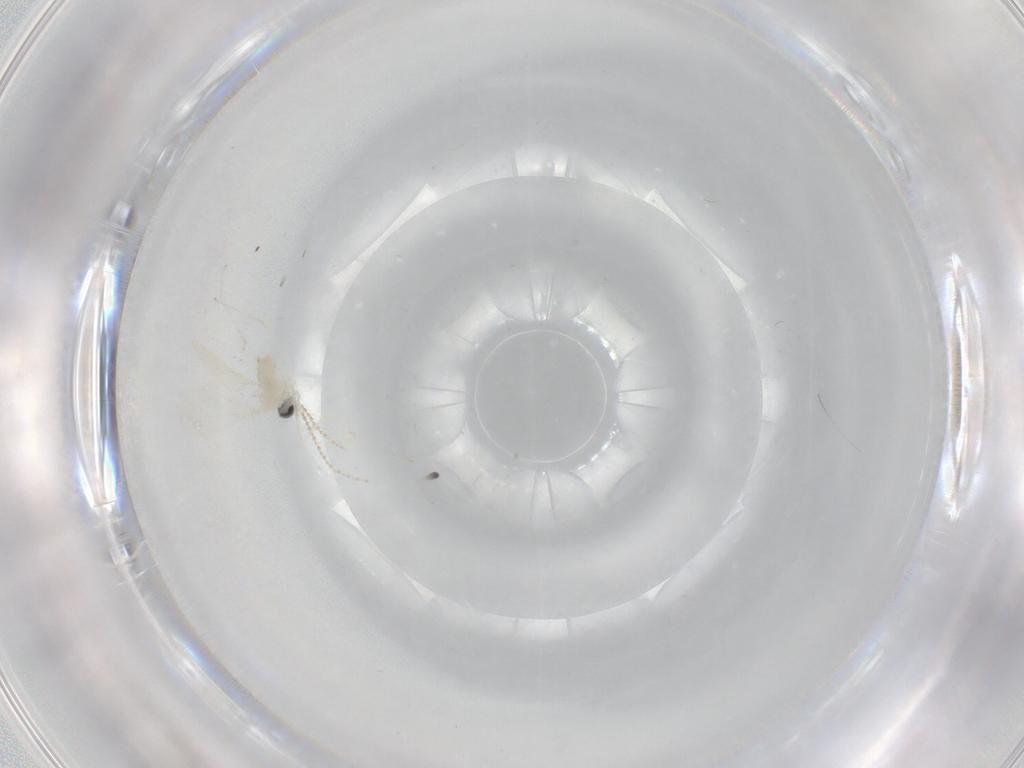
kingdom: Animalia
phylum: Arthropoda
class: Insecta
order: Diptera
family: Cecidomyiidae
